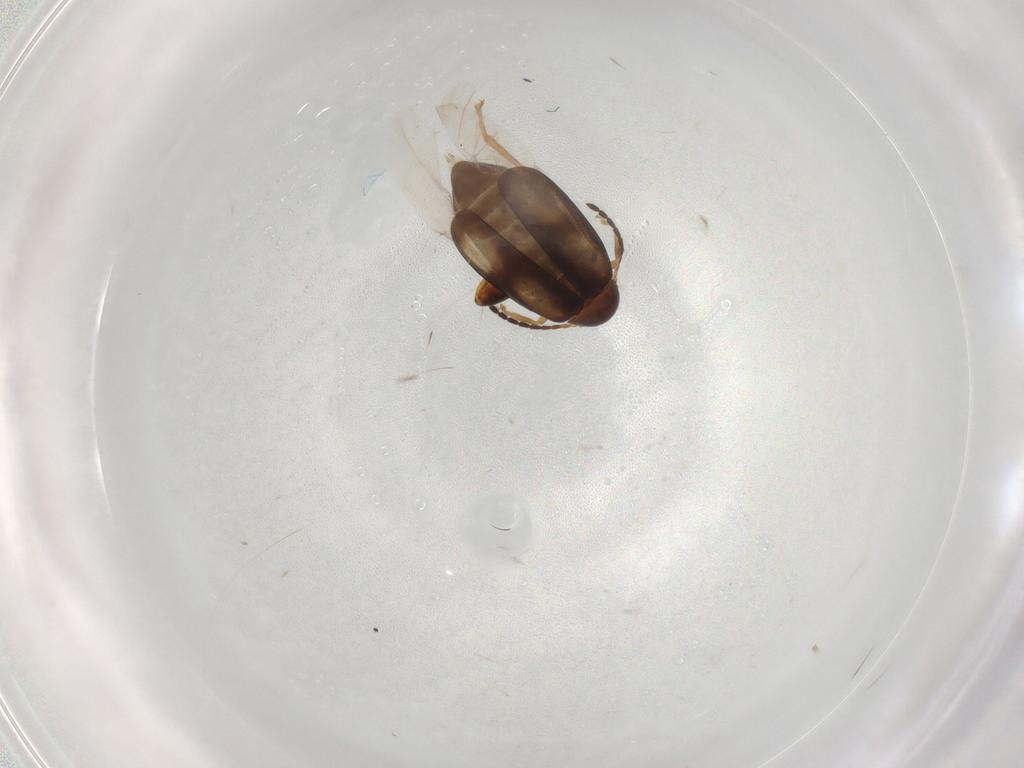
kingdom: Animalia
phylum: Arthropoda
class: Insecta
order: Coleoptera
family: Chrysomelidae
